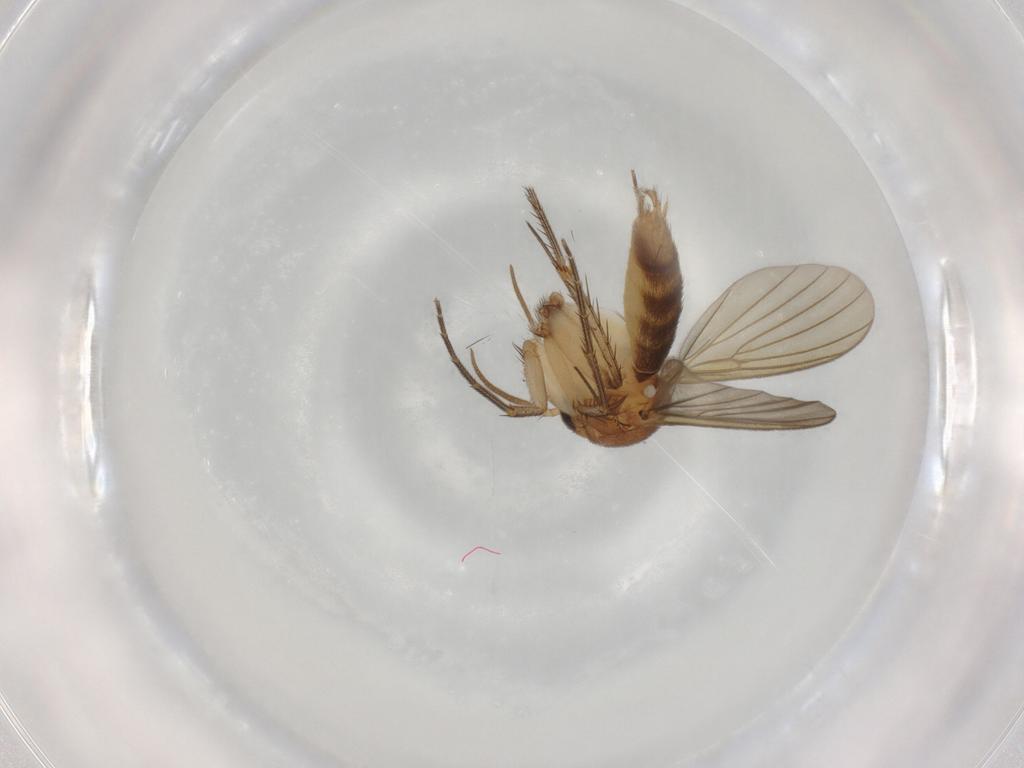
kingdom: Animalia
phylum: Arthropoda
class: Insecta
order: Diptera
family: Mycetophilidae
